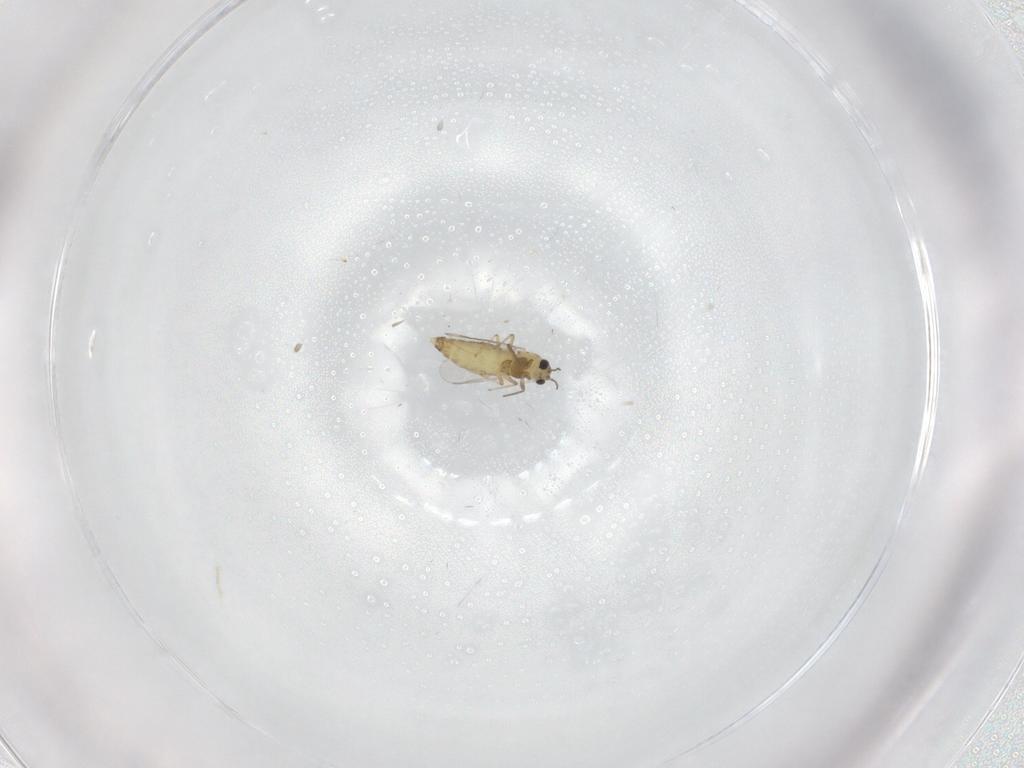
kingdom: Animalia
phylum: Arthropoda
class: Insecta
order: Diptera
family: Chironomidae
